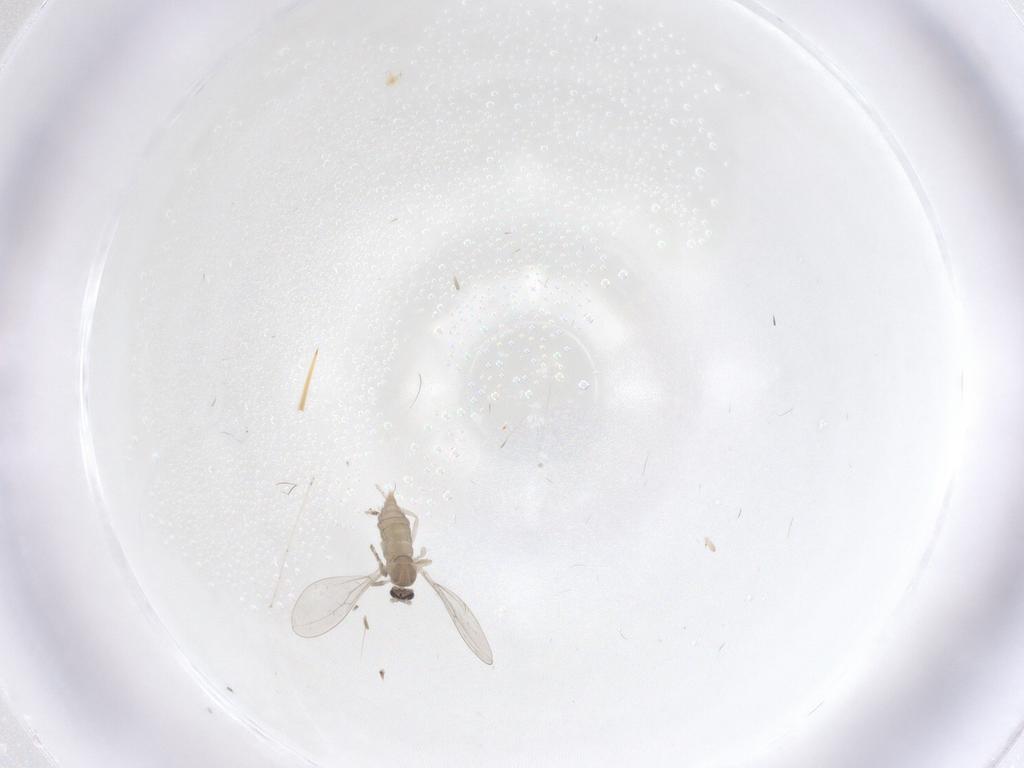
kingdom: Animalia
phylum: Arthropoda
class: Insecta
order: Diptera
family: Cecidomyiidae
